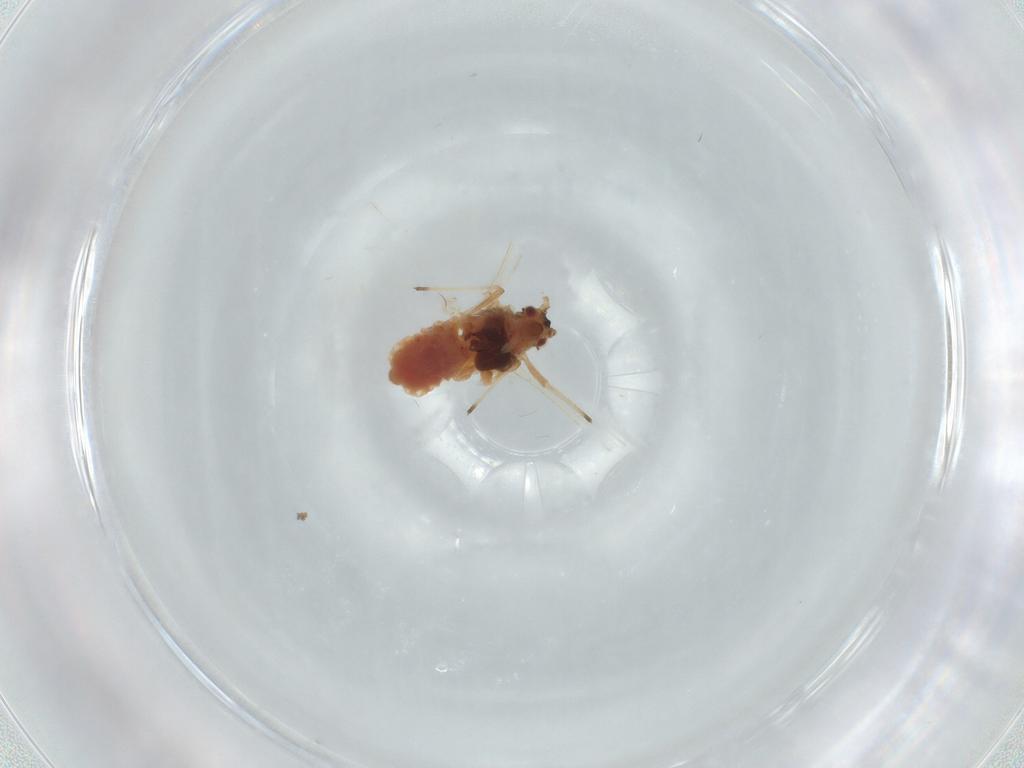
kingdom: Animalia
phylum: Arthropoda
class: Insecta
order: Hemiptera
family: Aphididae
